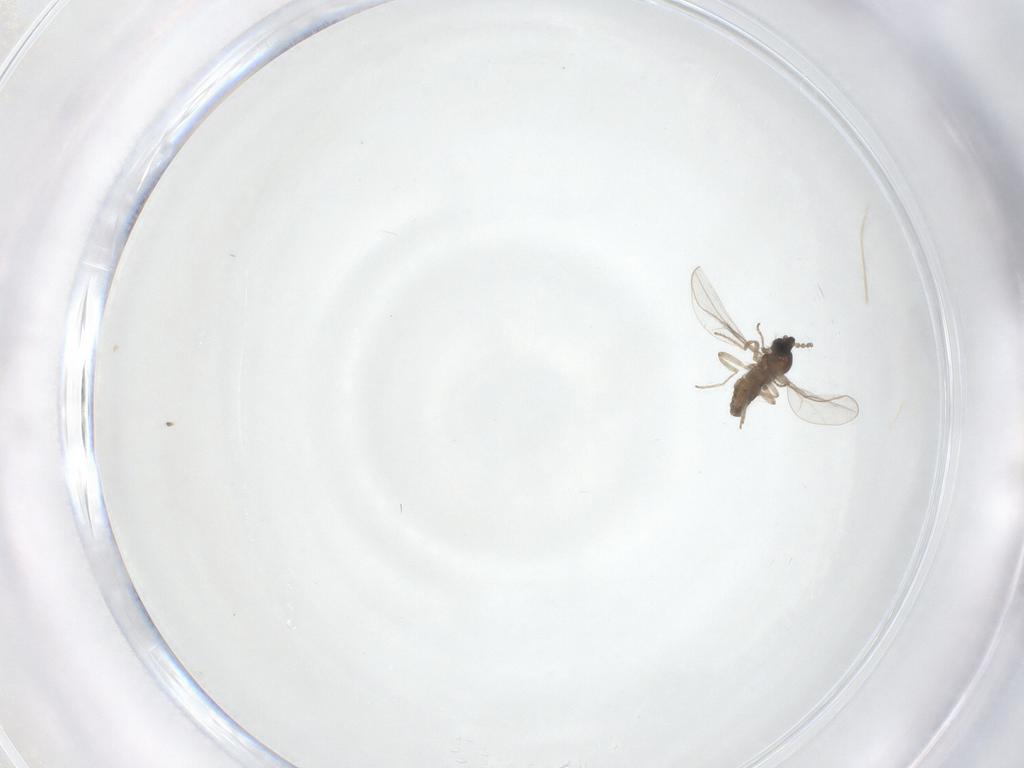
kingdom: Animalia
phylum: Arthropoda
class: Insecta
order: Diptera
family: Cecidomyiidae
